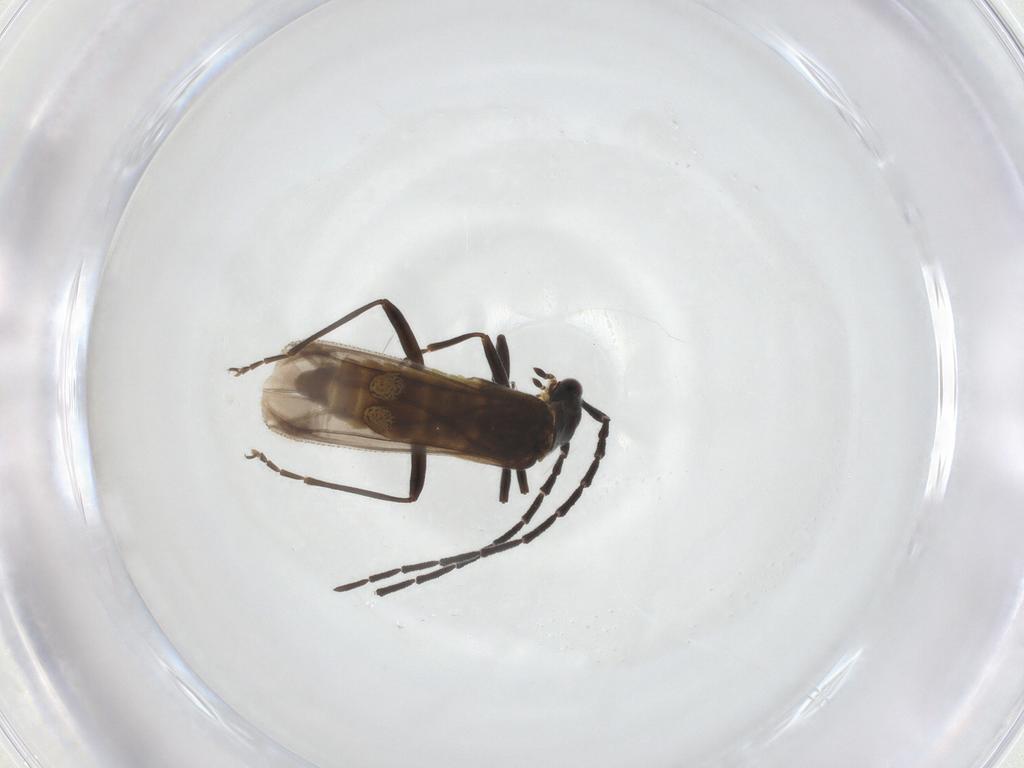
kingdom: Animalia
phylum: Arthropoda
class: Insecta
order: Coleoptera
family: Cantharidae
